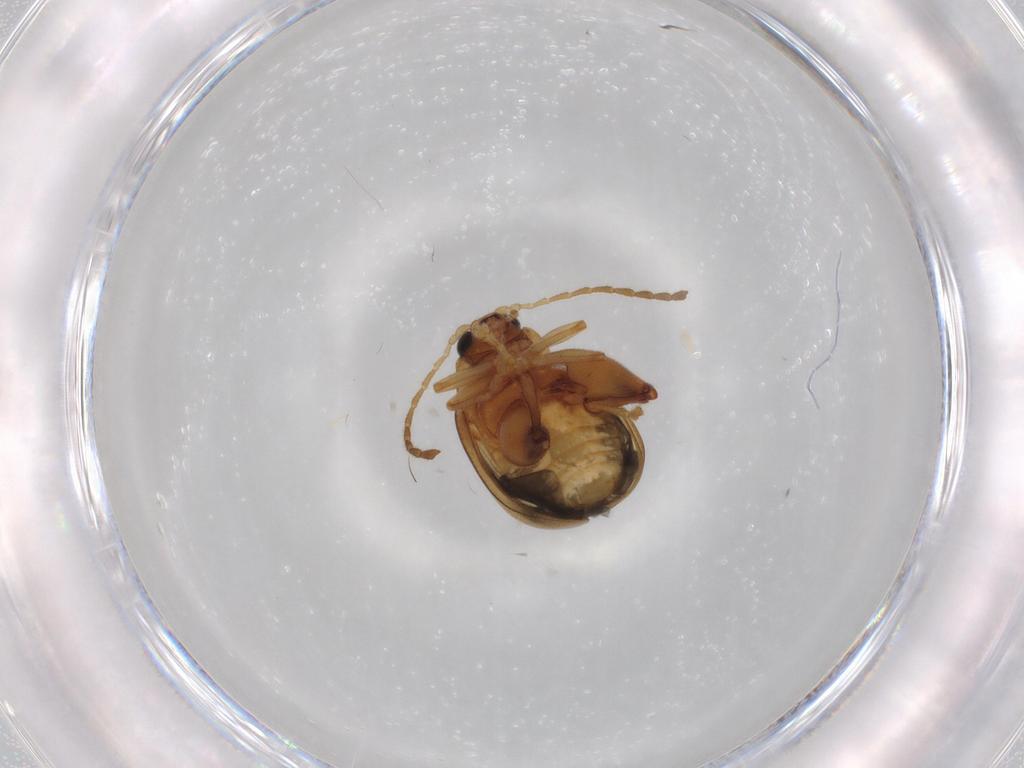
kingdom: Animalia
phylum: Arthropoda
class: Insecta
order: Coleoptera
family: Chrysomelidae
